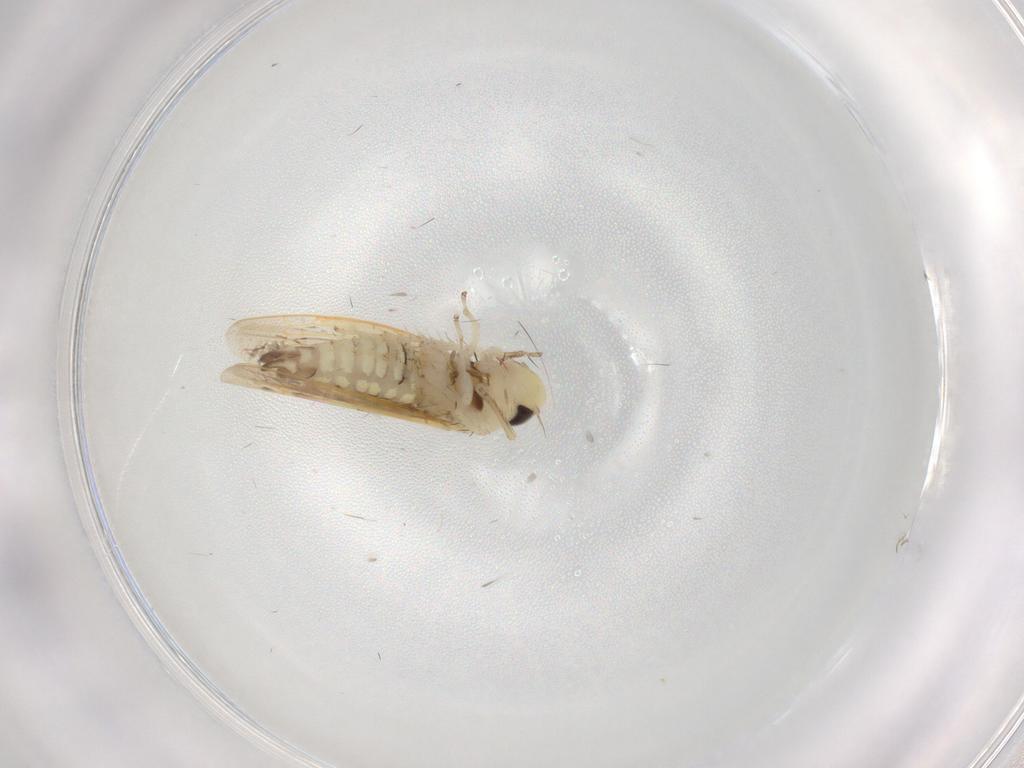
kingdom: Animalia
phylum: Arthropoda
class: Insecta
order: Hemiptera
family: Cicadellidae
